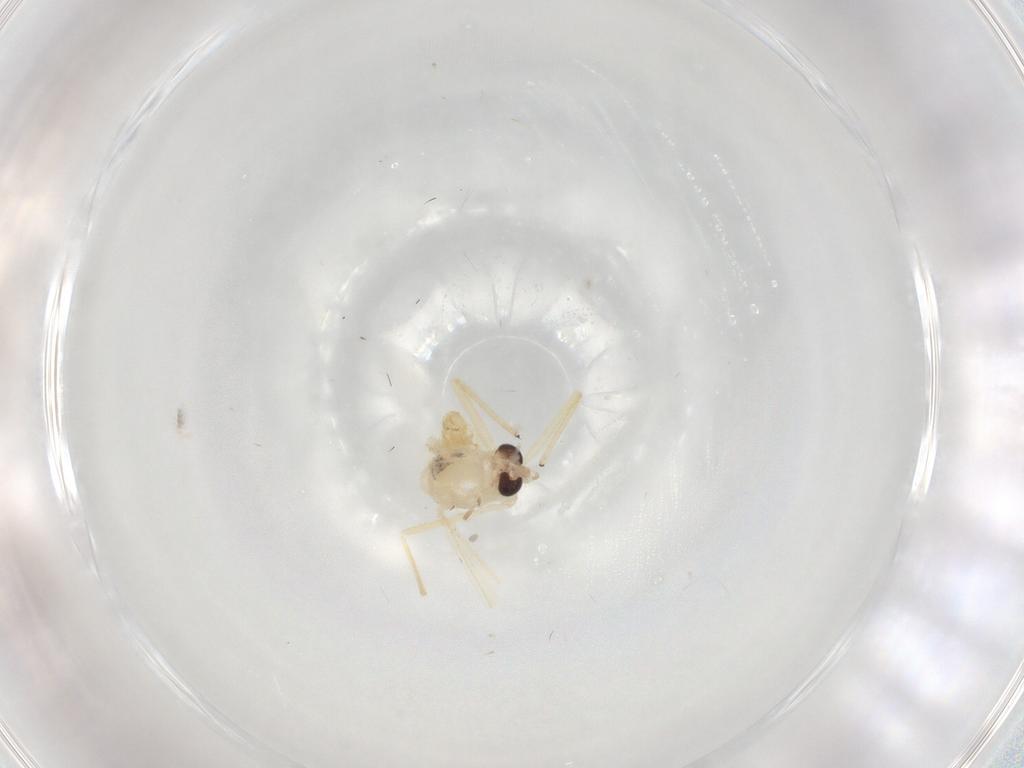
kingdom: Animalia
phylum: Arthropoda
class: Insecta
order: Diptera
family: Chironomidae
